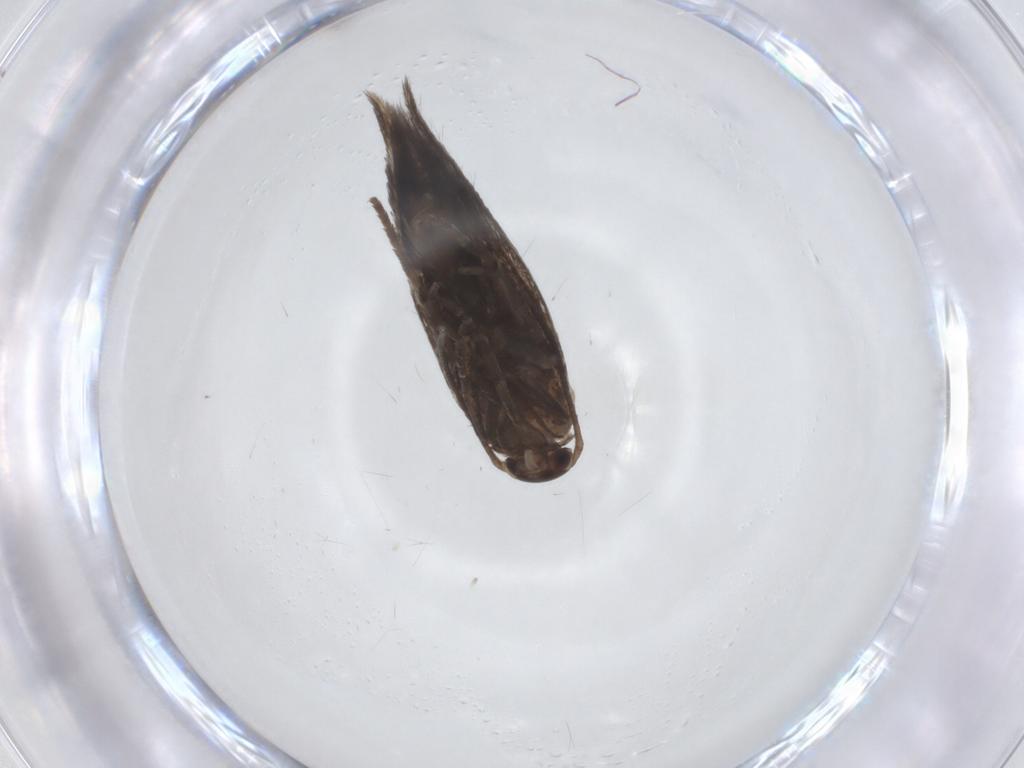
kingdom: Animalia
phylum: Arthropoda
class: Insecta
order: Lepidoptera
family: Elachistidae
